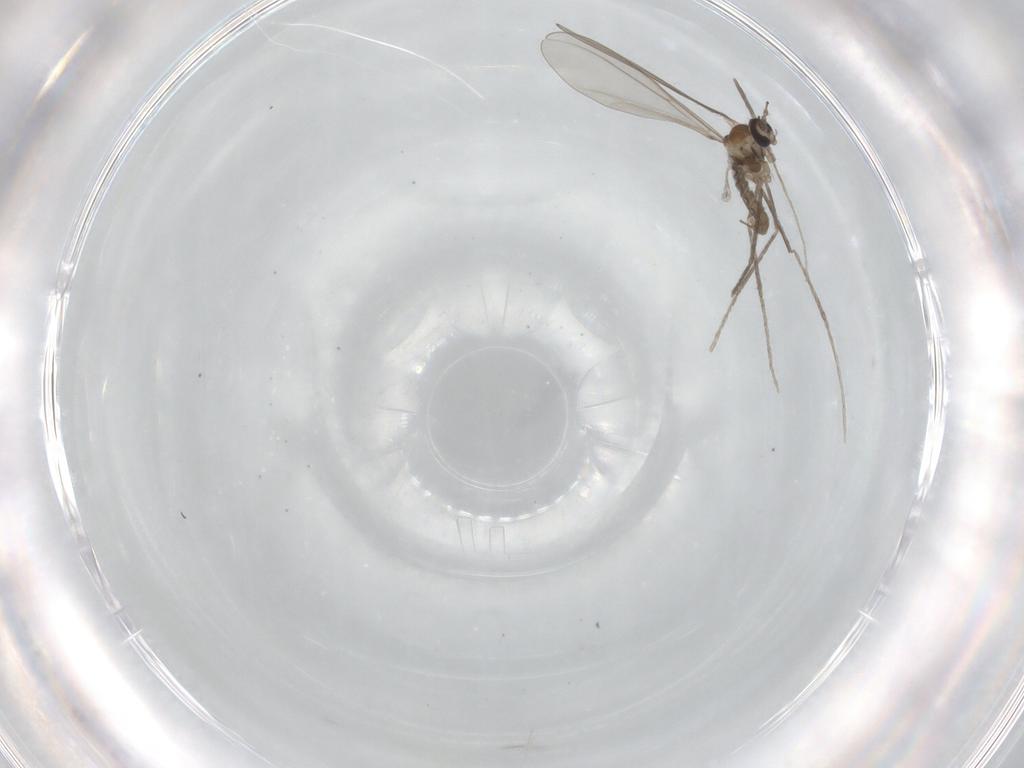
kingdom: Animalia
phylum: Arthropoda
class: Insecta
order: Diptera
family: Cecidomyiidae
